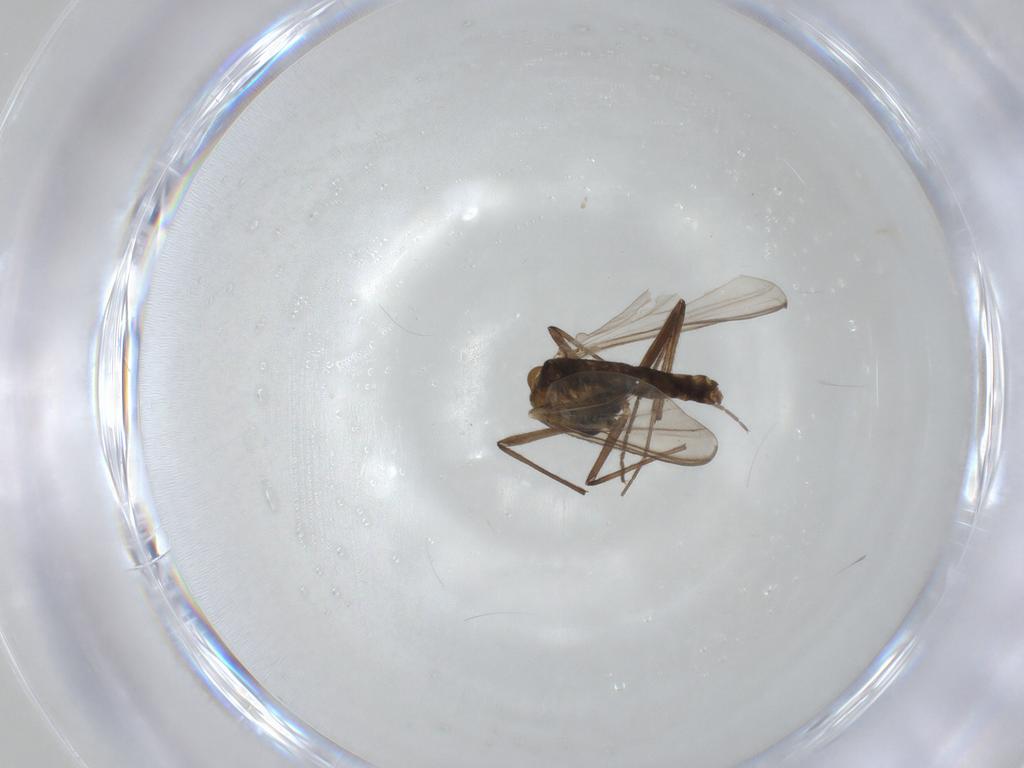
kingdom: Animalia
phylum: Arthropoda
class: Insecta
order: Diptera
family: Chironomidae
